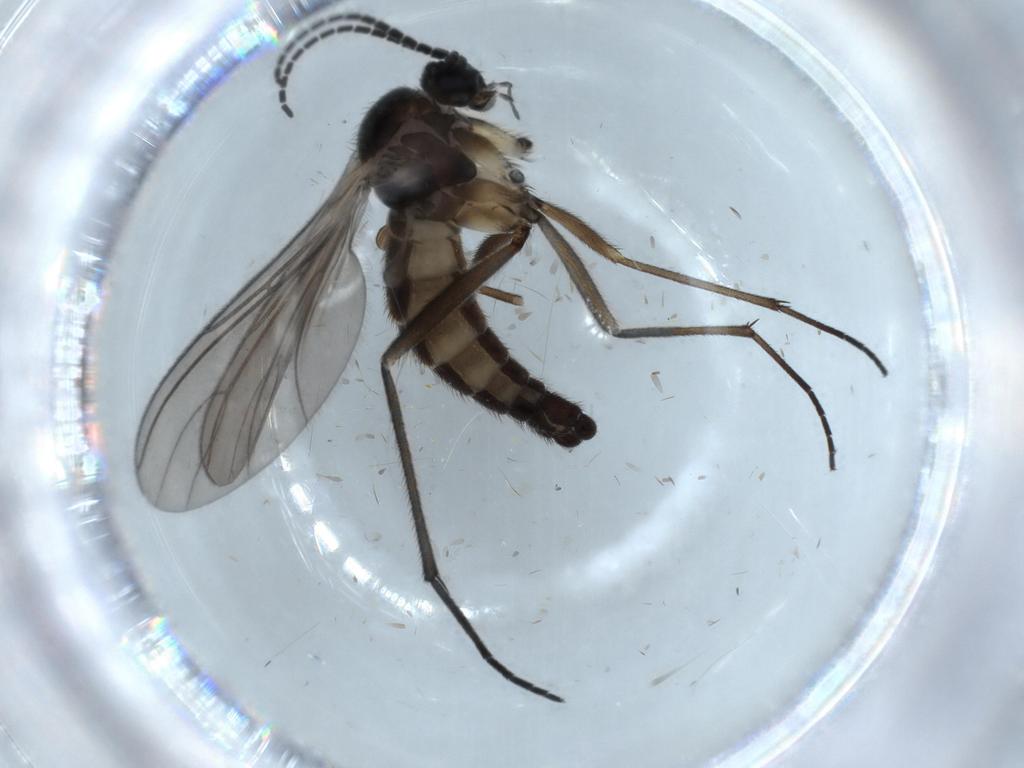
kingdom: Animalia
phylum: Arthropoda
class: Insecta
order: Diptera
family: Sciaridae
